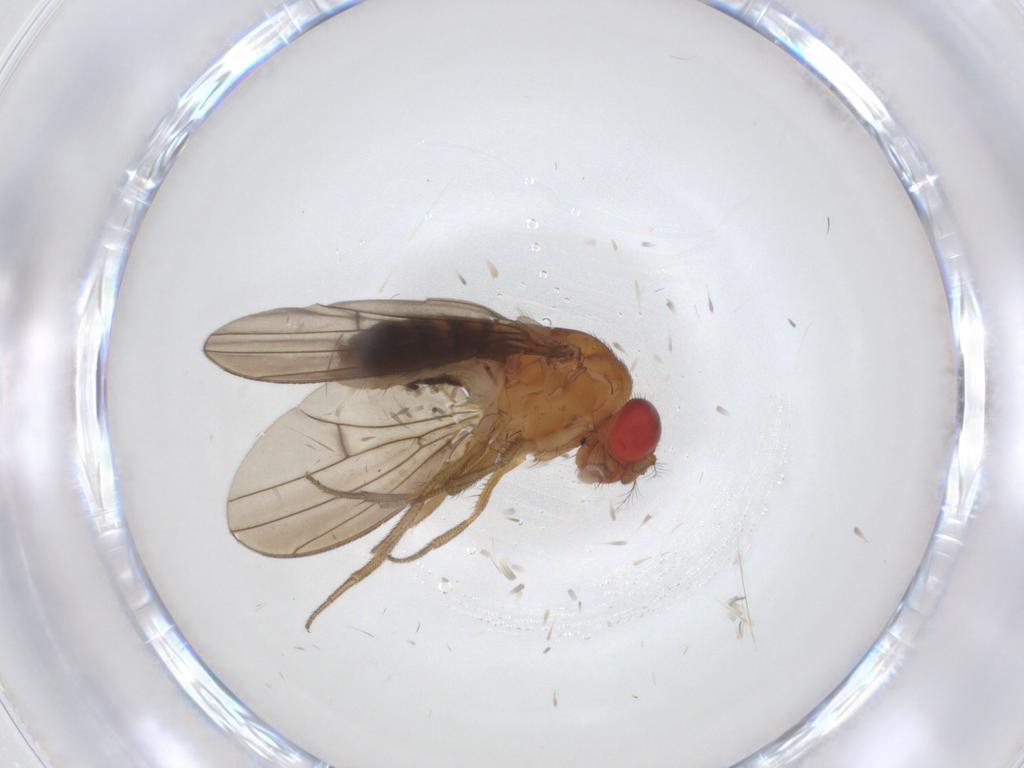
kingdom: Animalia
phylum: Arthropoda
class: Insecta
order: Diptera
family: Drosophilidae
